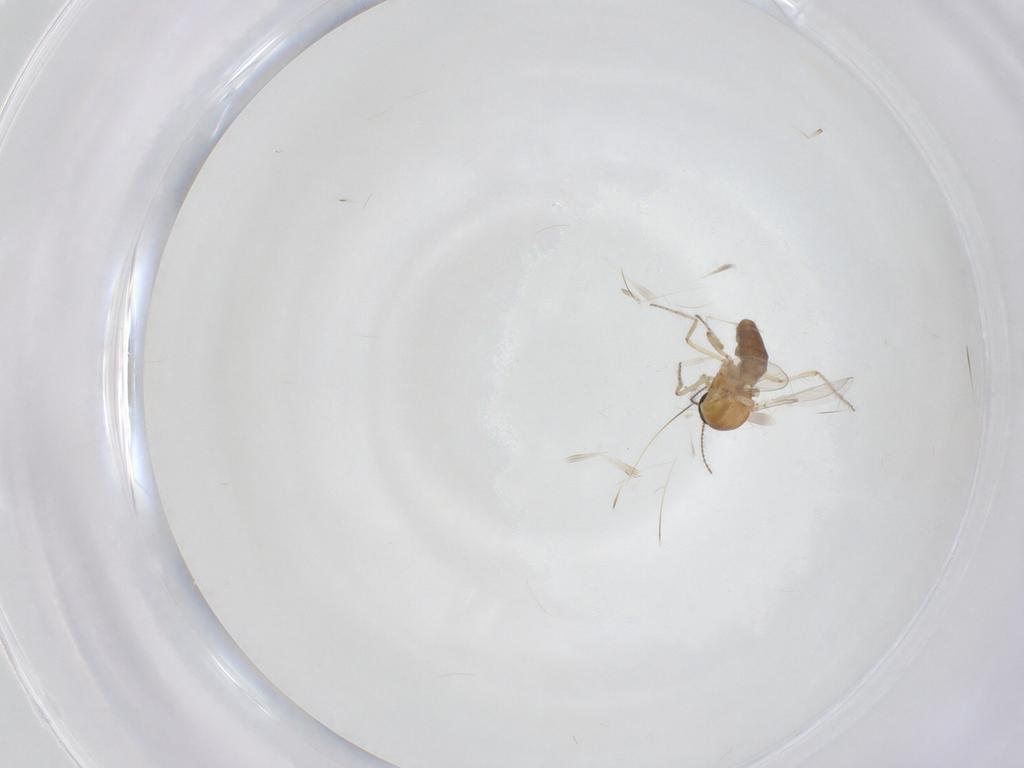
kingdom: Animalia
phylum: Arthropoda
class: Insecta
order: Diptera
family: Ceratopogonidae
